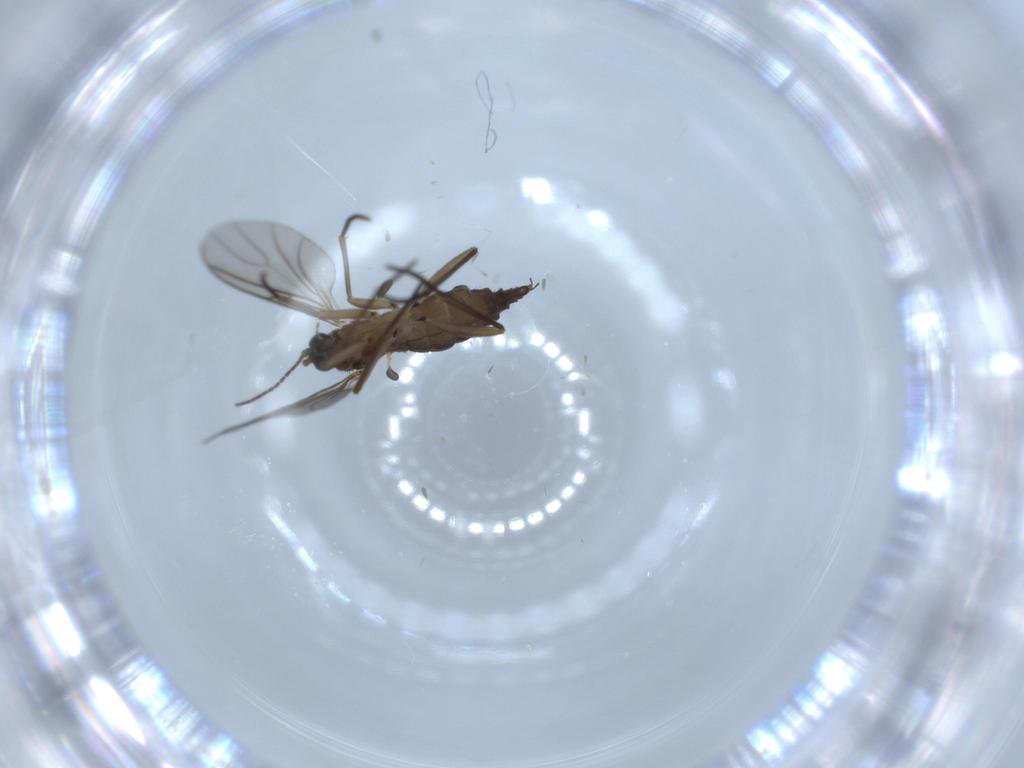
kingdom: Animalia
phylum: Arthropoda
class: Insecta
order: Diptera
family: Sciaridae
